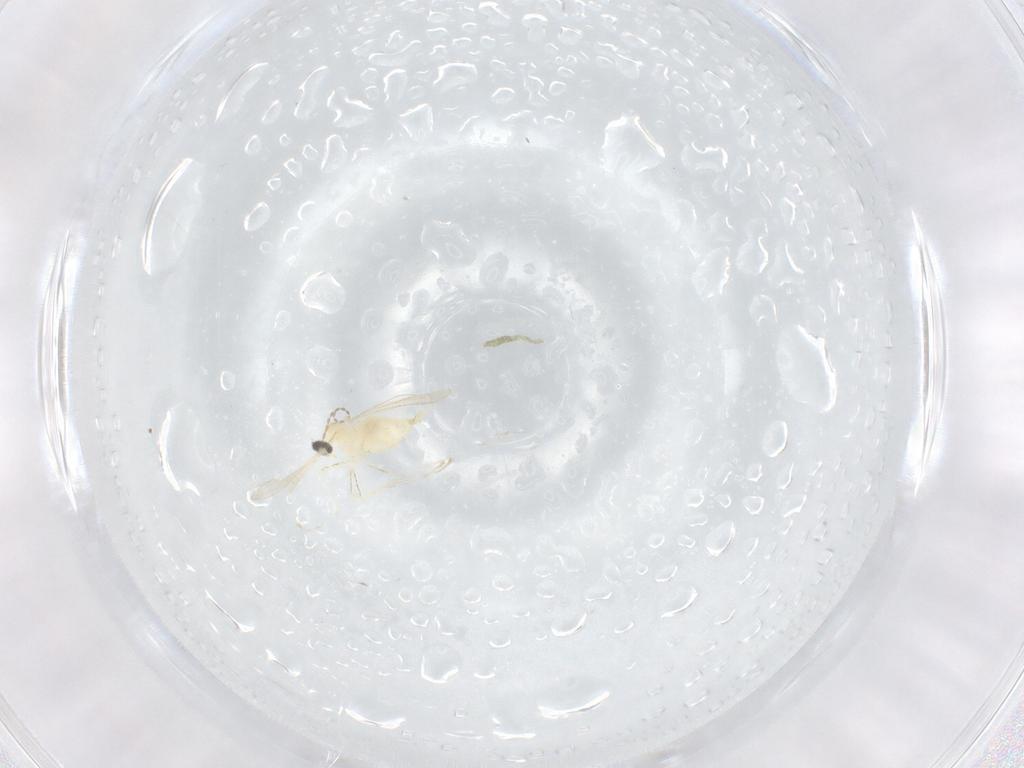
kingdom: Animalia
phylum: Arthropoda
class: Insecta
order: Diptera
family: Cecidomyiidae
